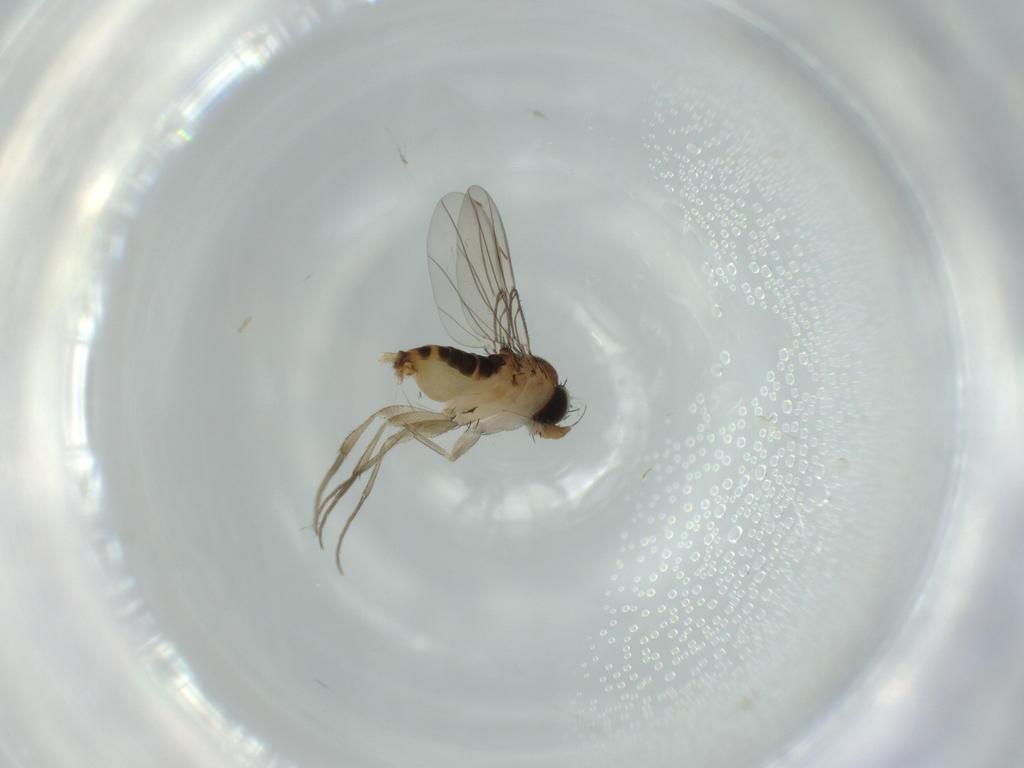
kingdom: Animalia
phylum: Arthropoda
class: Insecta
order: Diptera
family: Phoridae
